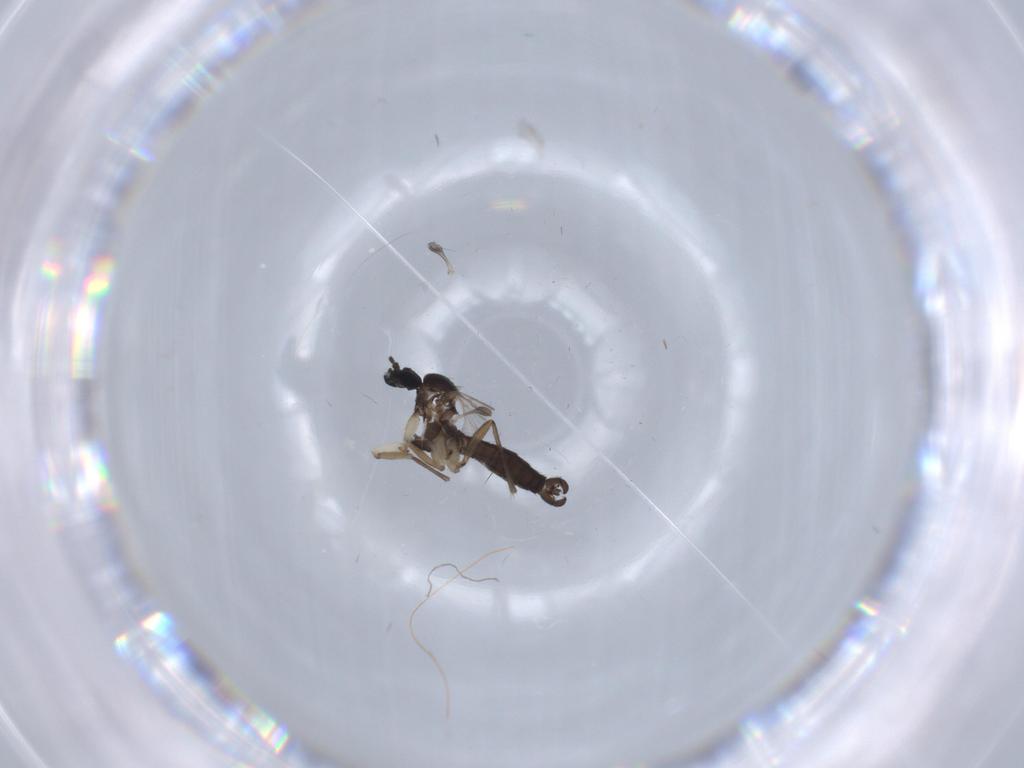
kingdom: Animalia
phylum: Arthropoda
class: Insecta
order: Diptera
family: Sciaridae
